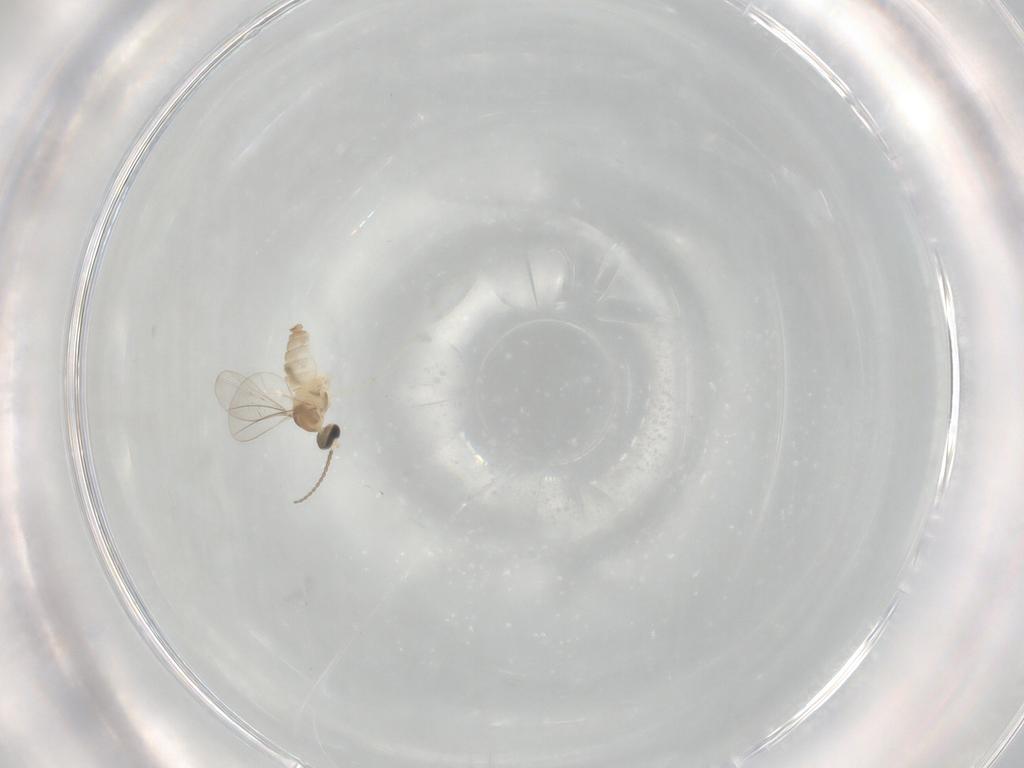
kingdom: Animalia
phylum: Arthropoda
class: Insecta
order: Diptera
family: Cecidomyiidae
